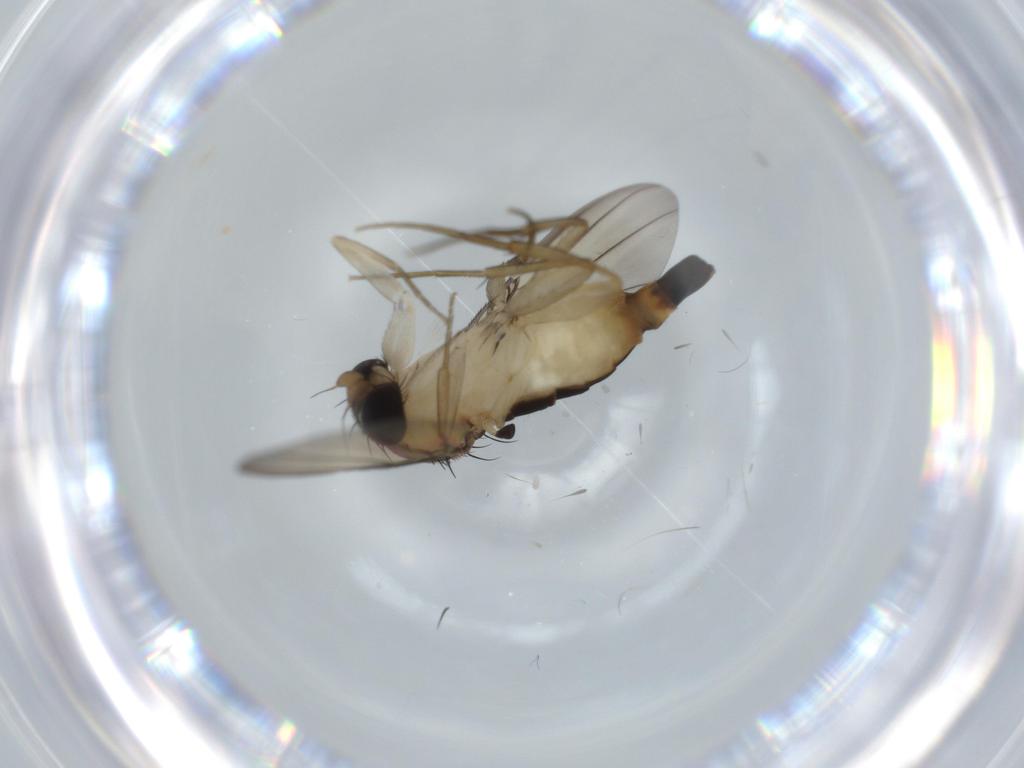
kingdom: Animalia
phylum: Arthropoda
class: Insecta
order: Diptera
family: Phoridae
